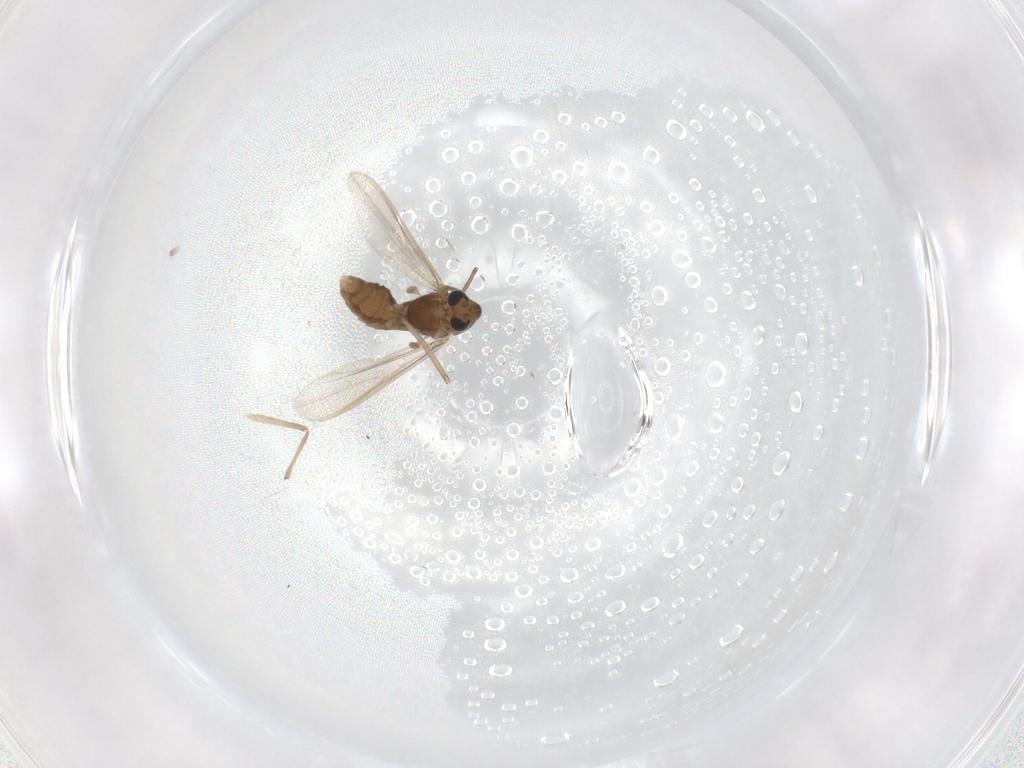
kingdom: Animalia
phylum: Arthropoda
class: Insecta
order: Diptera
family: Chironomidae
